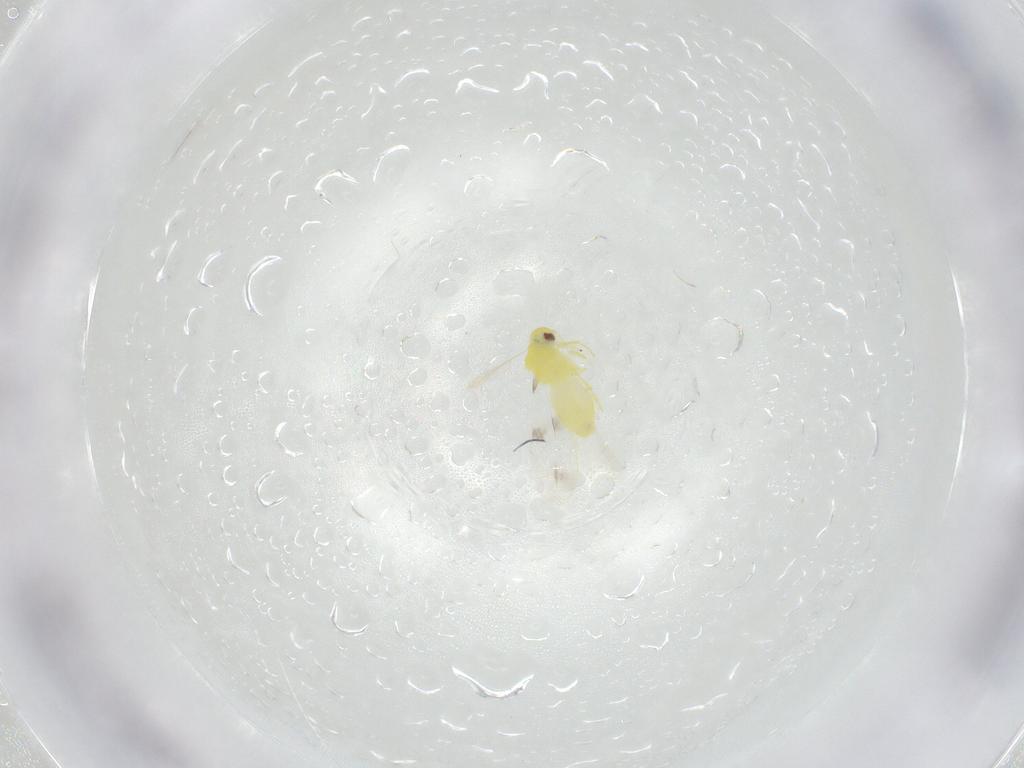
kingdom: Animalia
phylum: Arthropoda
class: Insecta
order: Hemiptera
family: Aleyrodidae
